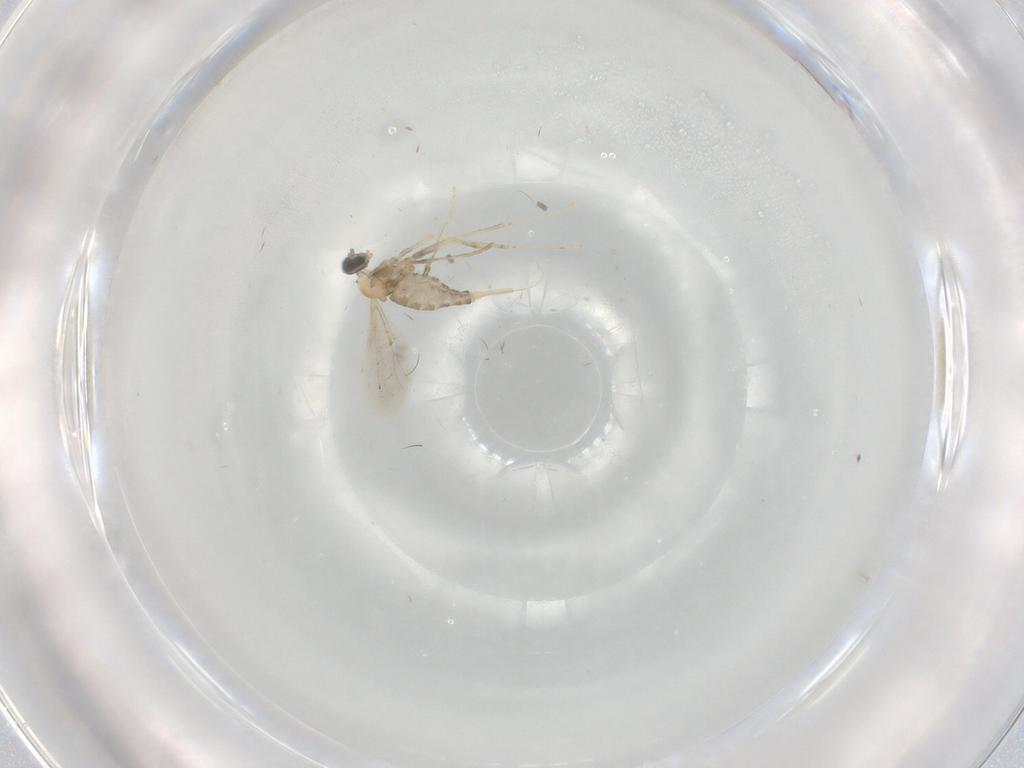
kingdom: Animalia
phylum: Arthropoda
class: Insecta
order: Diptera
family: Cecidomyiidae
